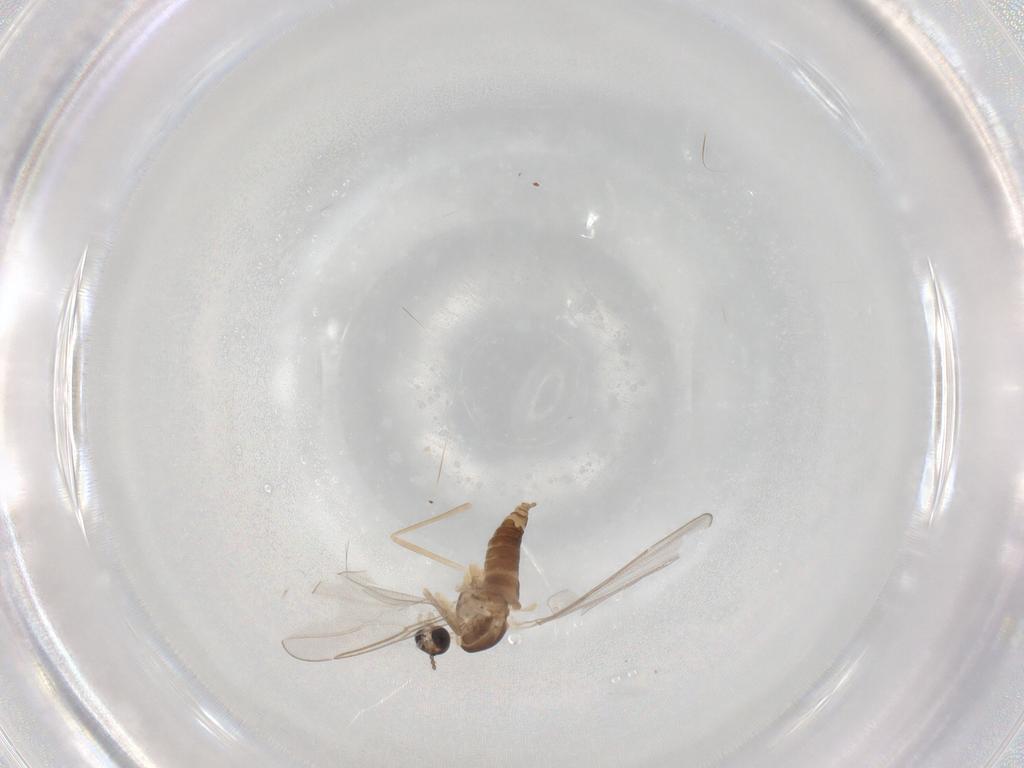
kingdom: Animalia
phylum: Arthropoda
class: Insecta
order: Diptera
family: Cecidomyiidae
